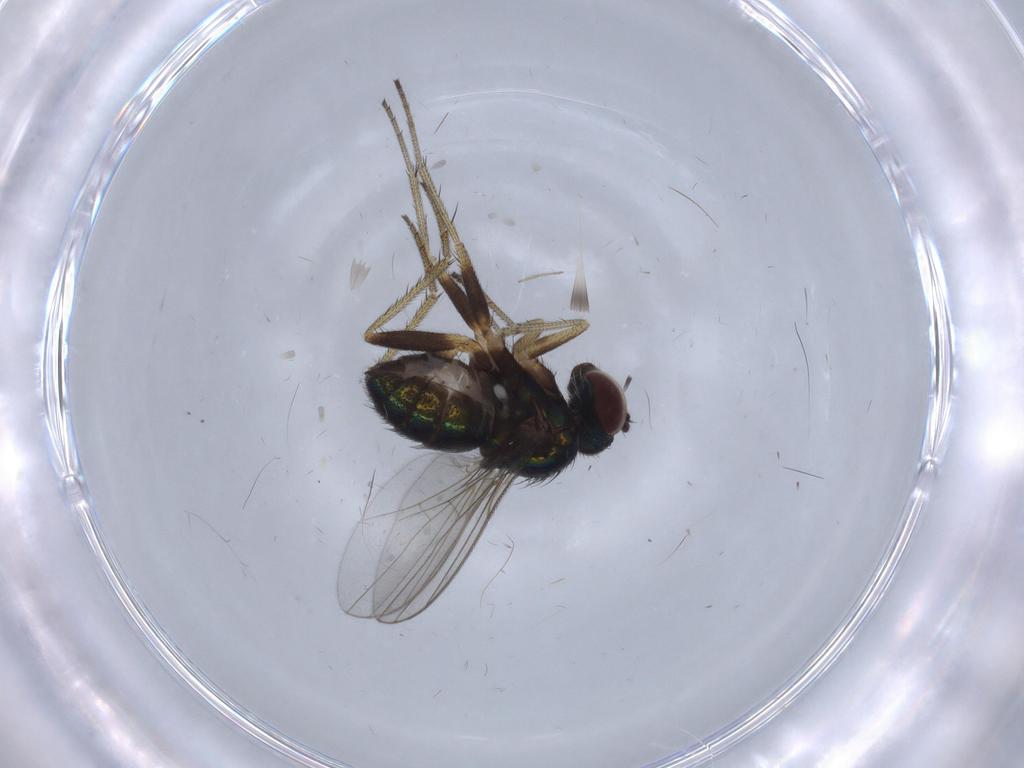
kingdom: Animalia
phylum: Arthropoda
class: Insecta
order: Diptera
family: Dolichopodidae
